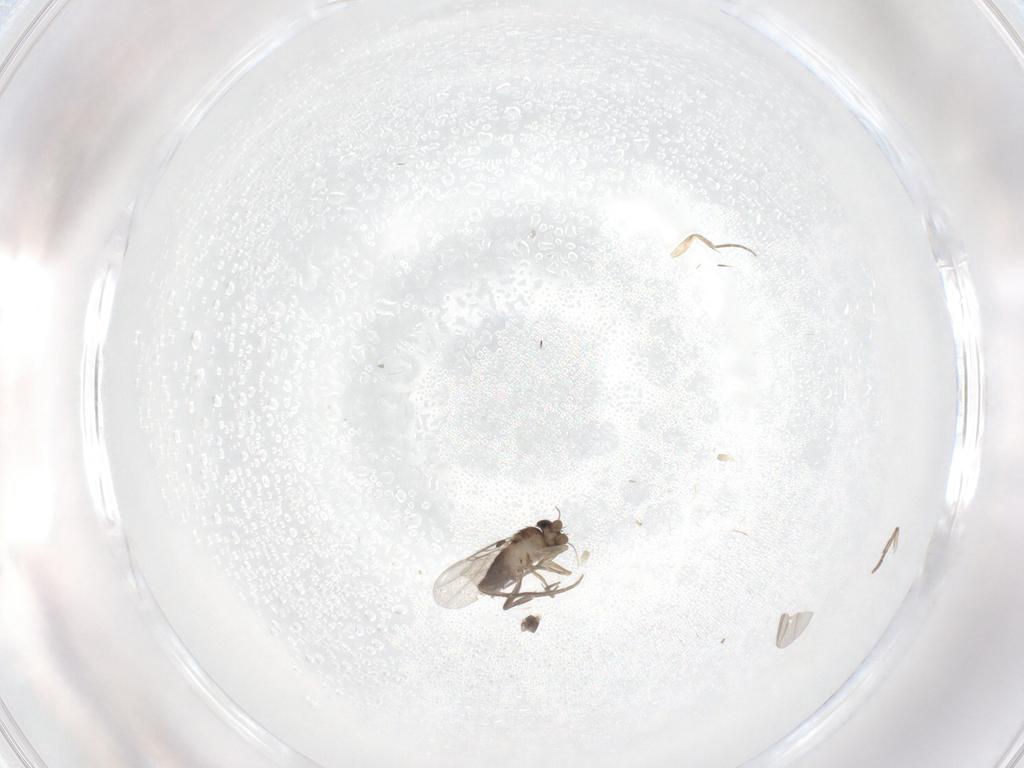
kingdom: Animalia
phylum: Arthropoda
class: Insecta
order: Diptera
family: Phoridae
